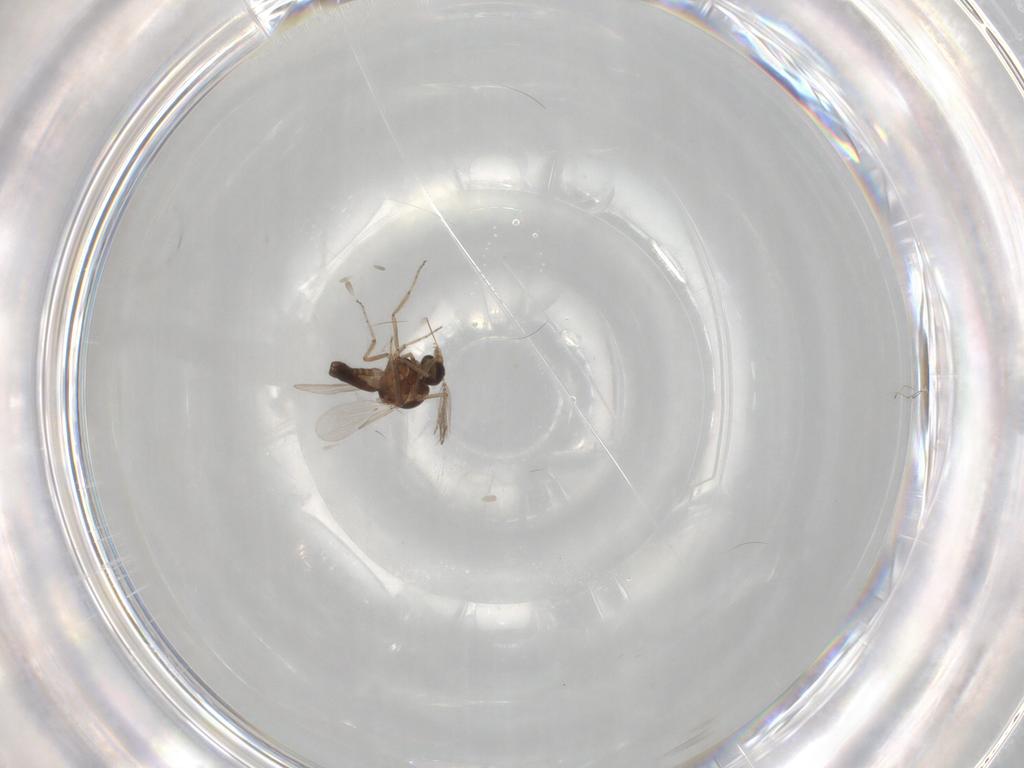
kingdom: Animalia
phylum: Arthropoda
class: Insecta
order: Diptera
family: Ceratopogonidae
